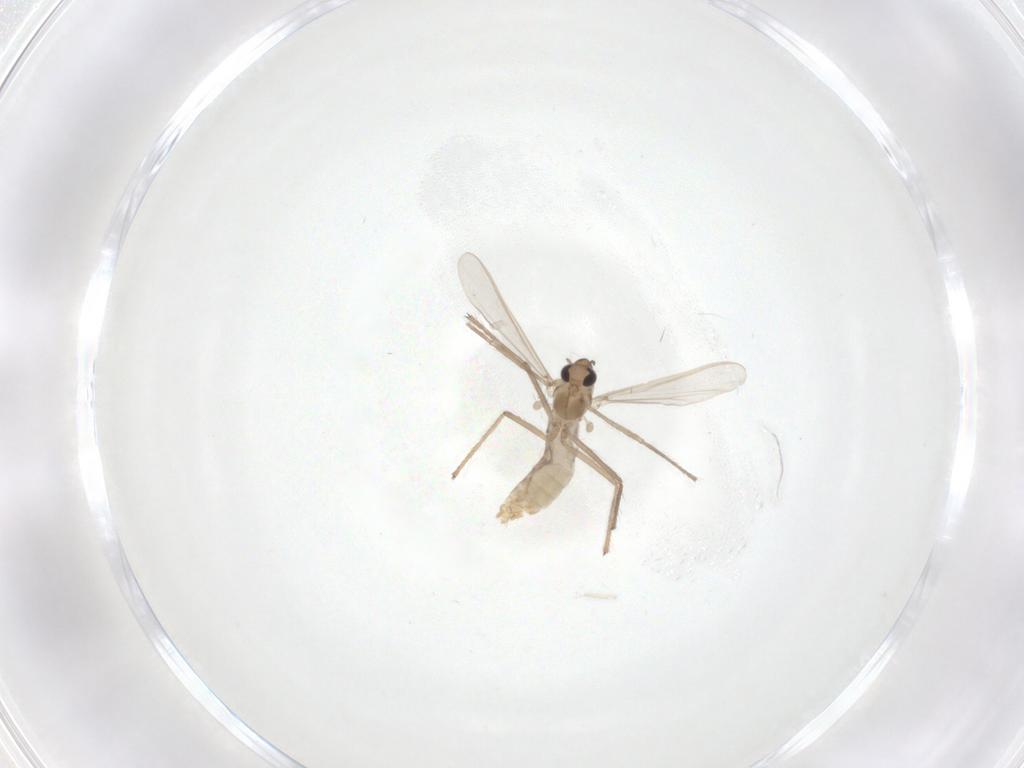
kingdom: Animalia
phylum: Arthropoda
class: Insecta
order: Diptera
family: Chironomidae
